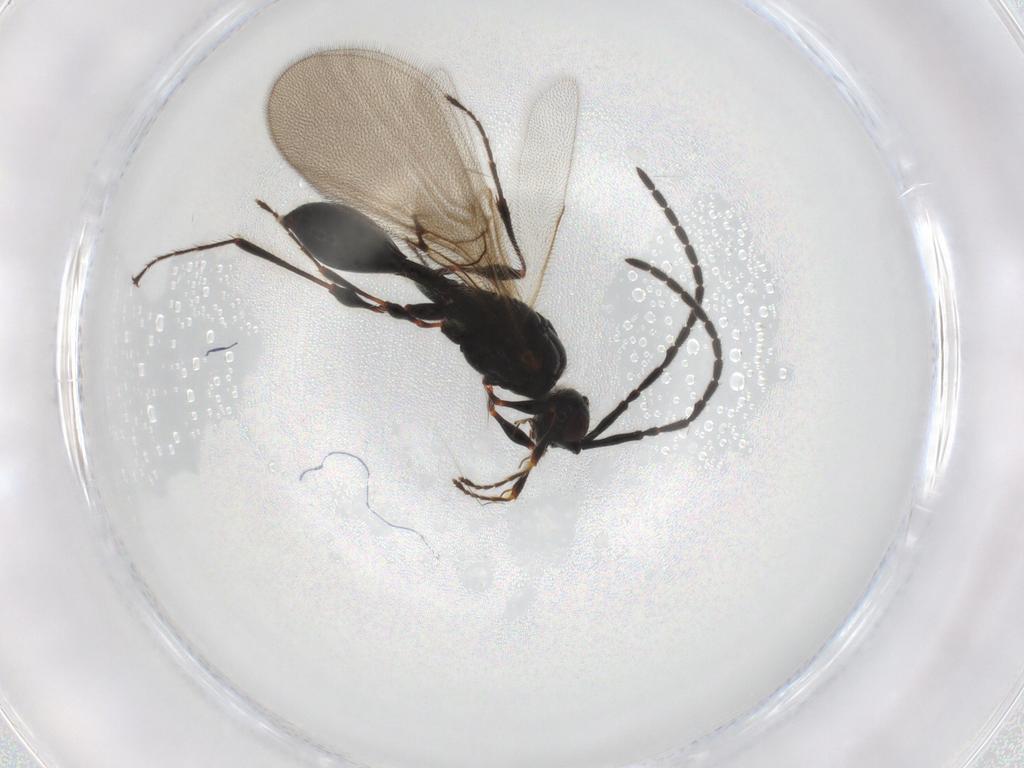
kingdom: Animalia
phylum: Arthropoda
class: Insecta
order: Hymenoptera
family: Diapriidae
